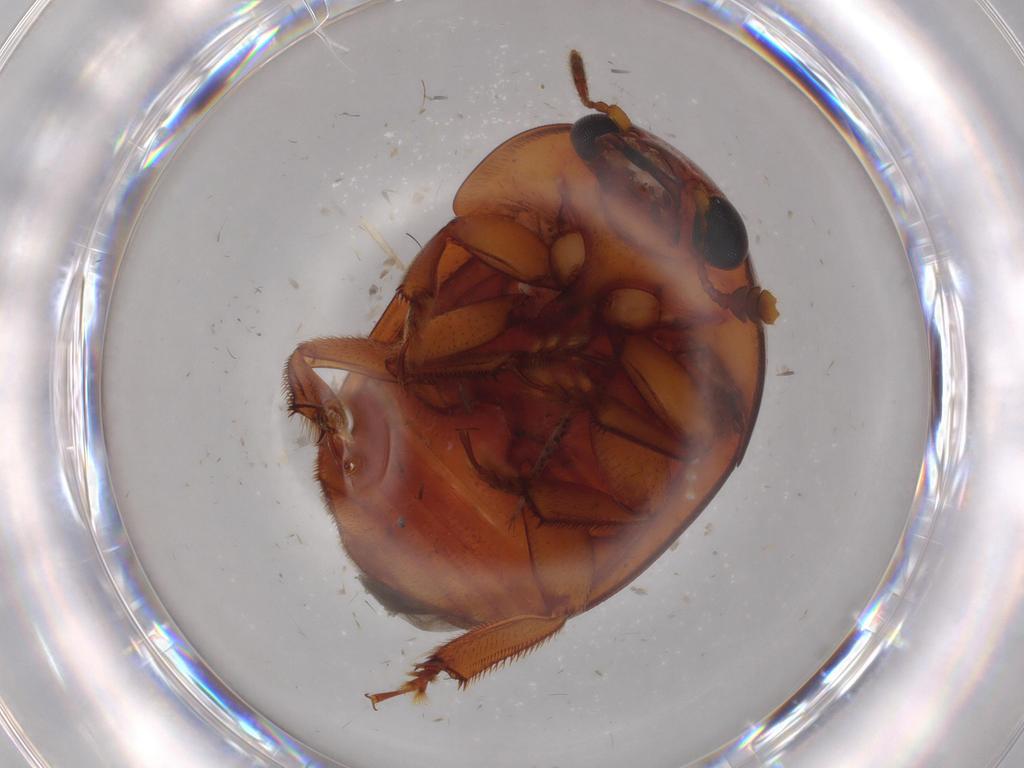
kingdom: Animalia
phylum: Arthropoda
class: Insecta
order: Coleoptera
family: Nitidulidae
